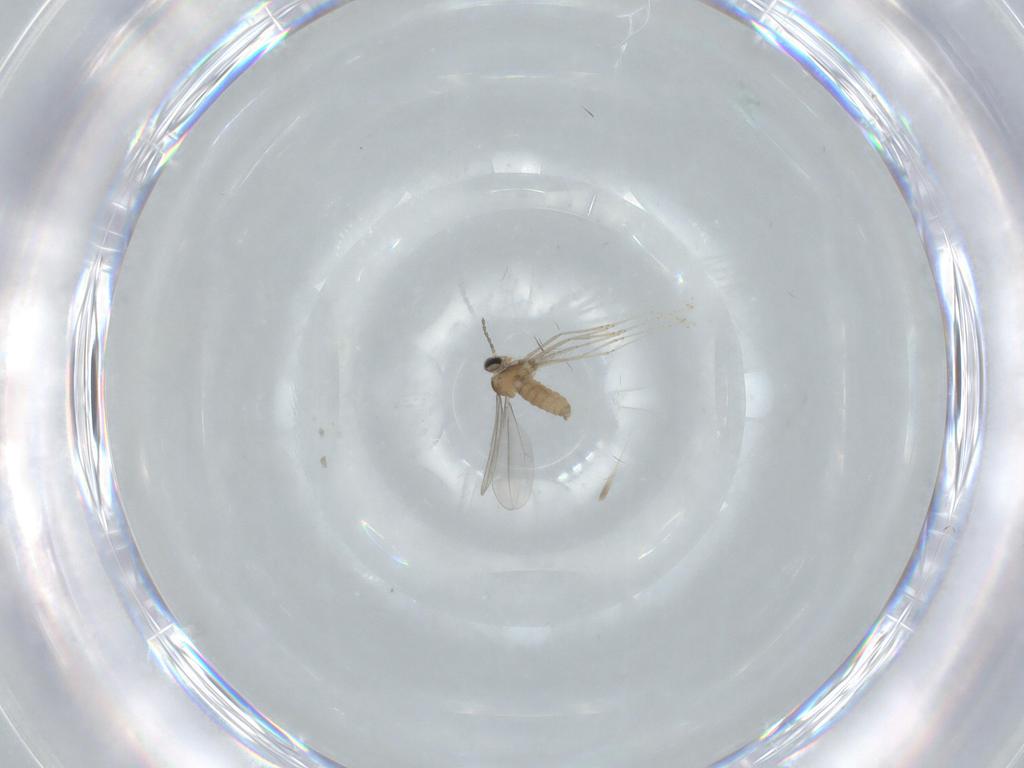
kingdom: Animalia
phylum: Arthropoda
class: Insecta
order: Diptera
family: Cecidomyiidae
